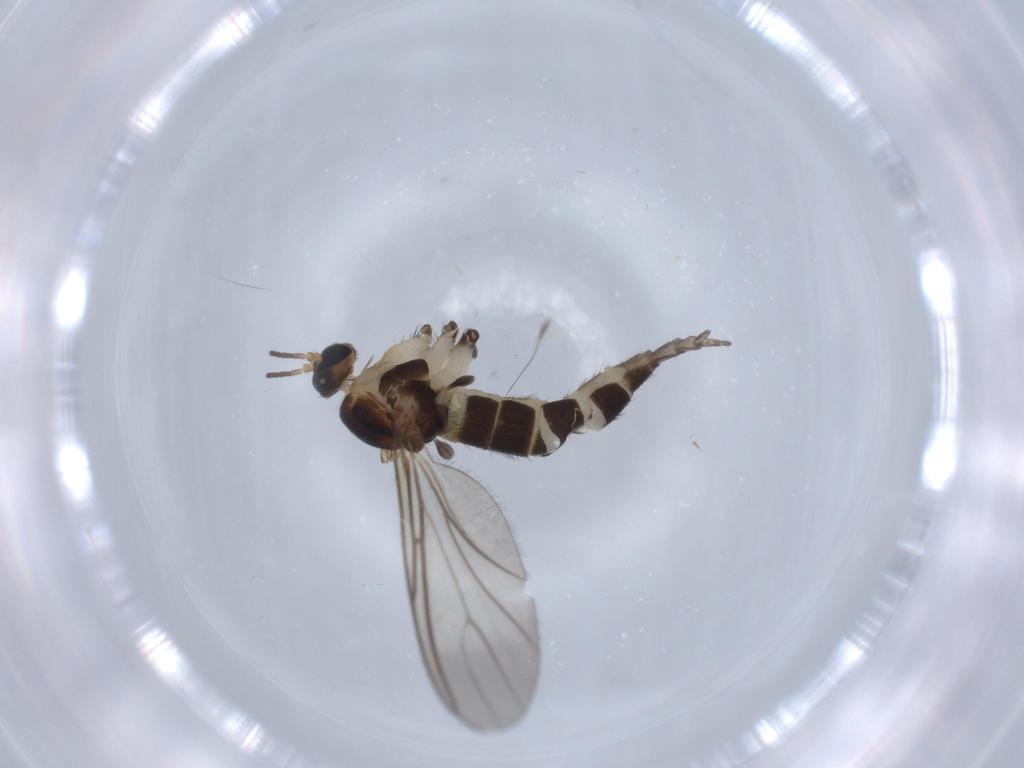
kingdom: Animalia
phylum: Arthropoda
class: Insecta
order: Diptera
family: Sciaridae
